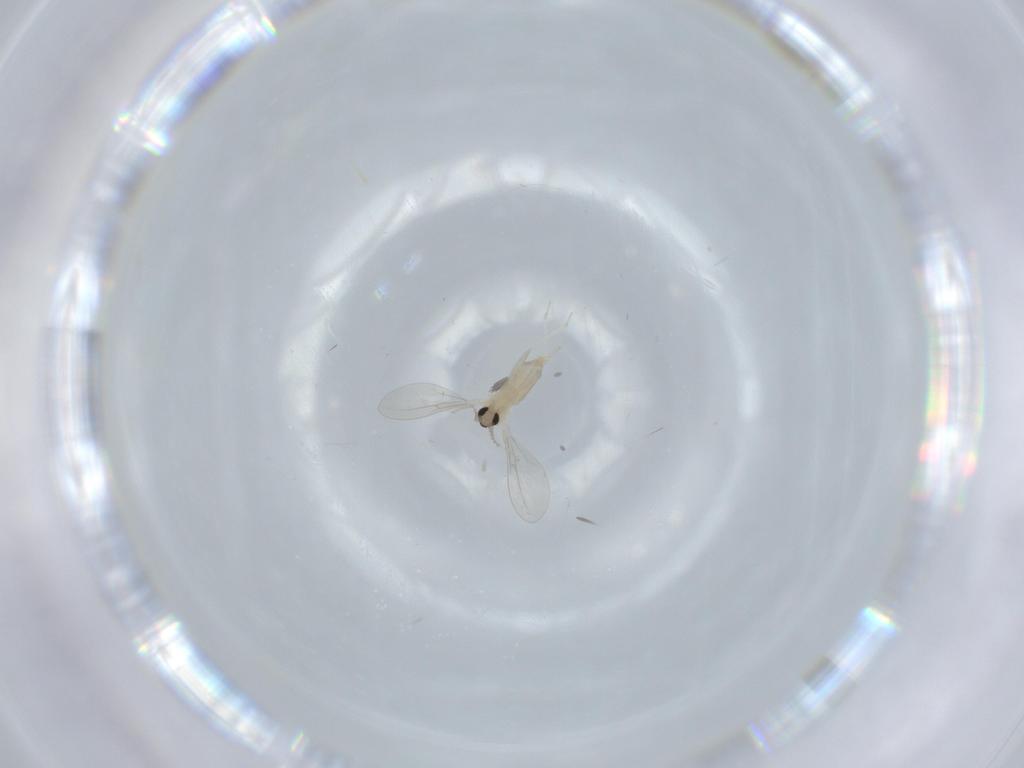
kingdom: Animalia
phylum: Arthropoda
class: Insecta
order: Diptera
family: Cecidomyiidae
